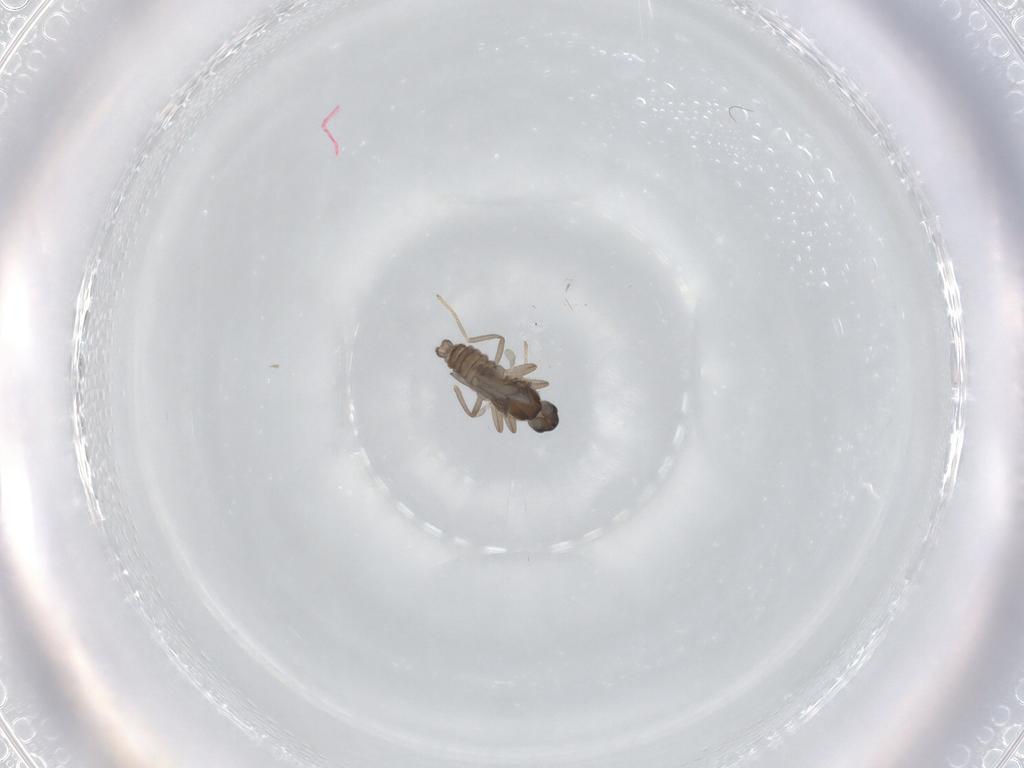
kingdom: Animalia
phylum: Arthropoda
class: Insecta
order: Diptera
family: Cecidomyiidae
